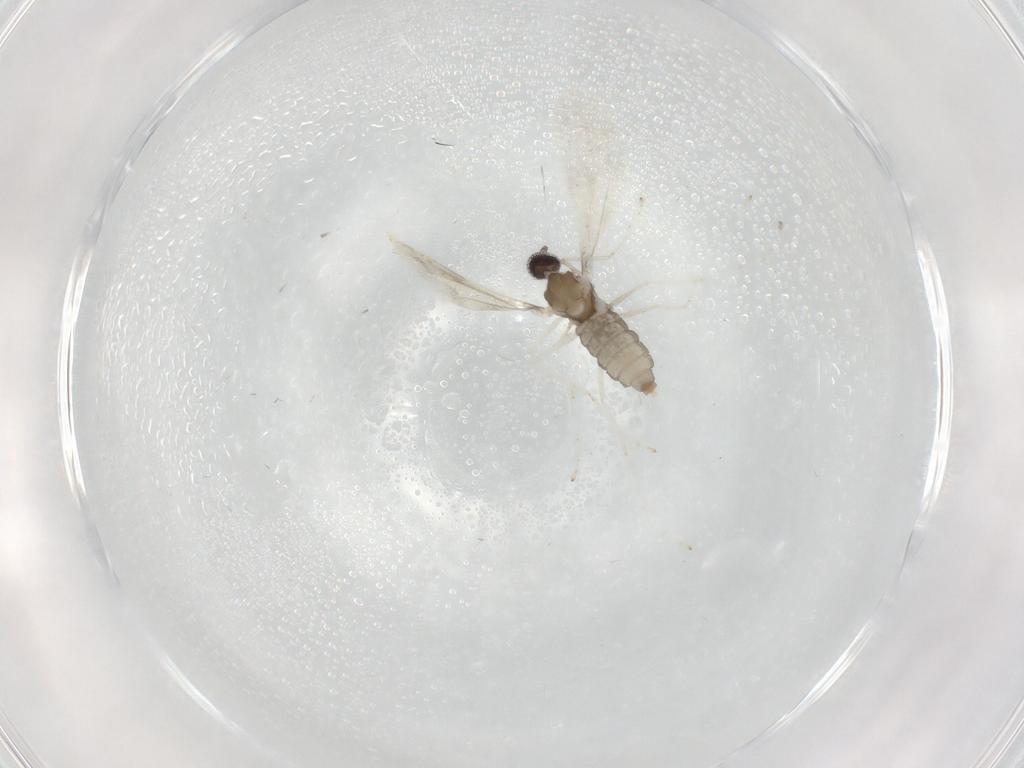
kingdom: Animalia
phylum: Arthropoda
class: Insecta
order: Diptera
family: Cecidomyiidae
